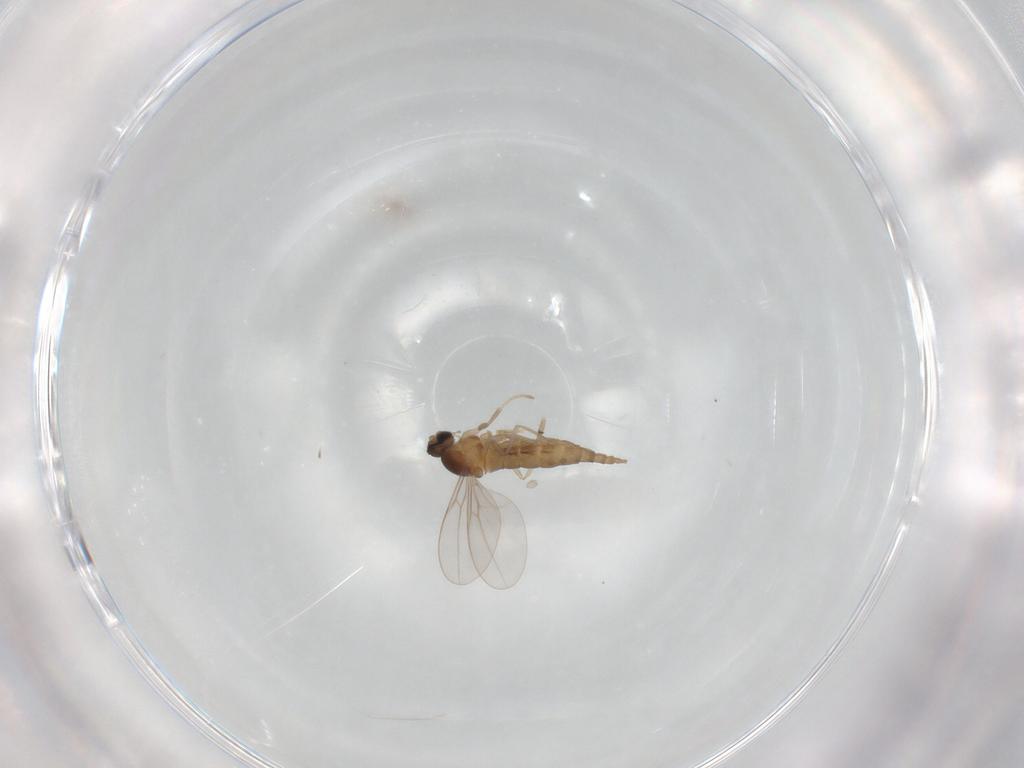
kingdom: Animalia
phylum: Arthropoda
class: Insecta
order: Diptera
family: Cecidomyiidae
